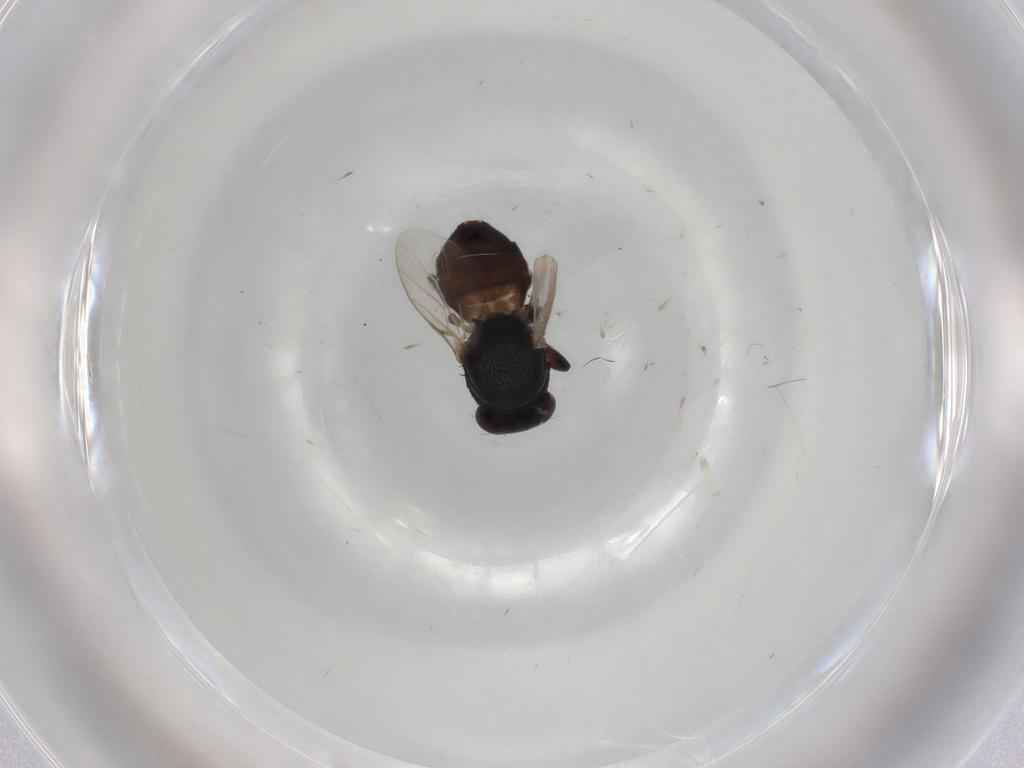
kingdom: Animalia
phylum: Arthropoda
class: Insecta
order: Diptera
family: Chloropidae
